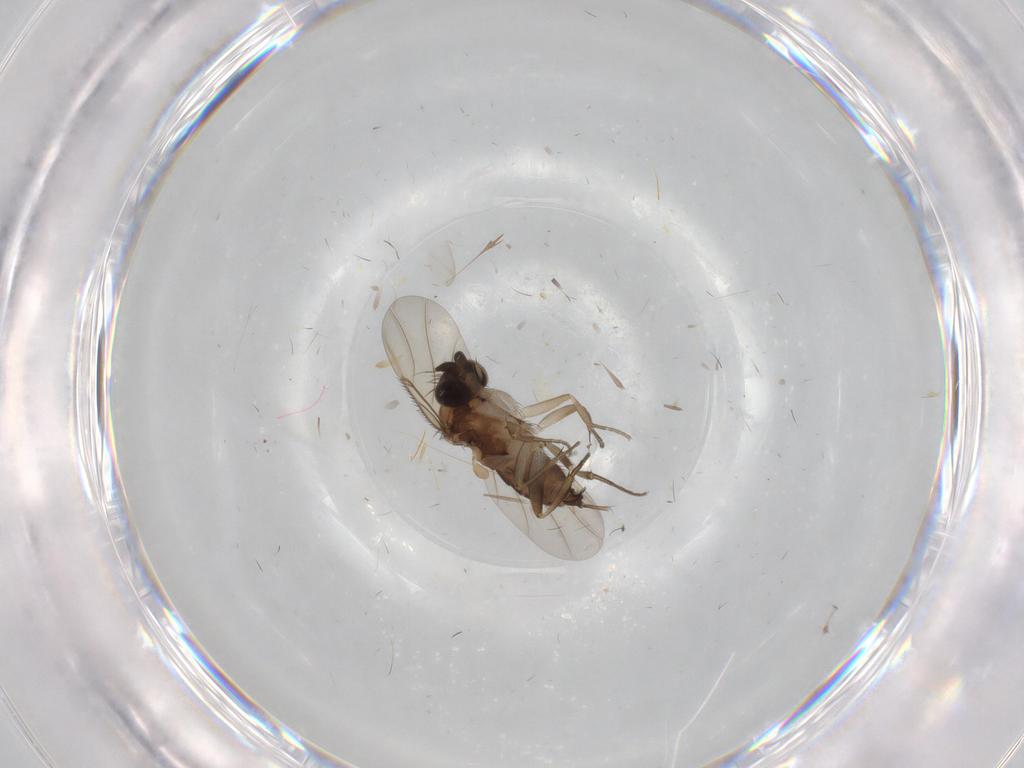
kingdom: Animalia
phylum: Arthropoda
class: Insecta
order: Diptera
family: Phoridae
